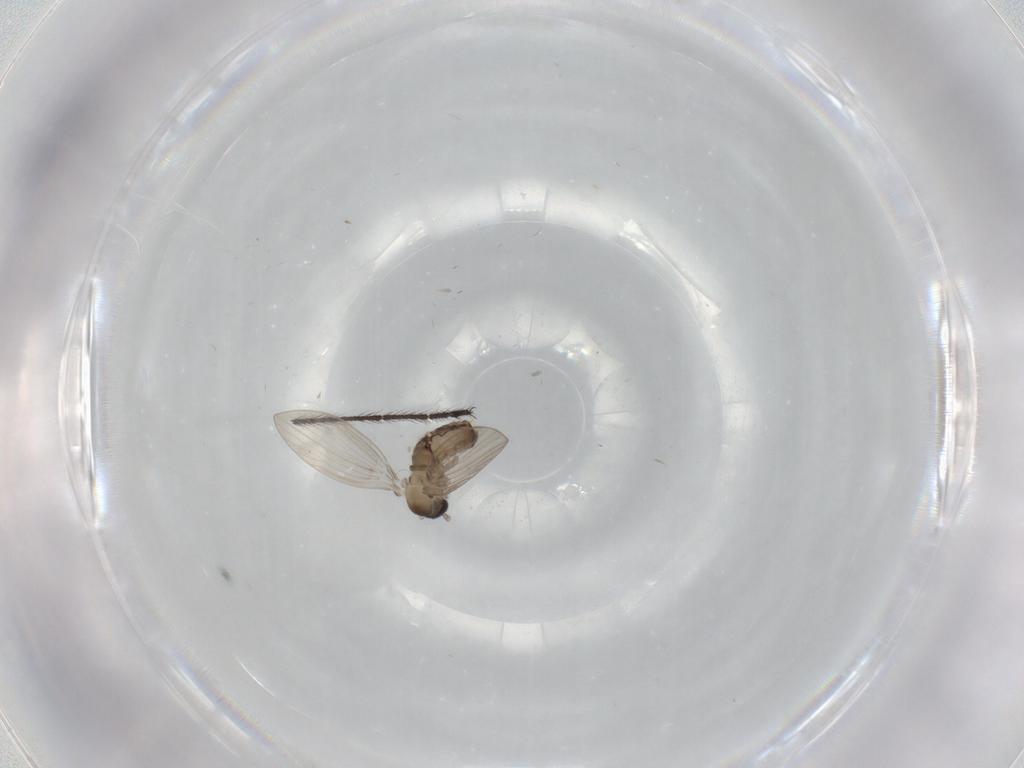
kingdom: Animalia
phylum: Arthropoda
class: Insecta
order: Diptera
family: Psychodidae
